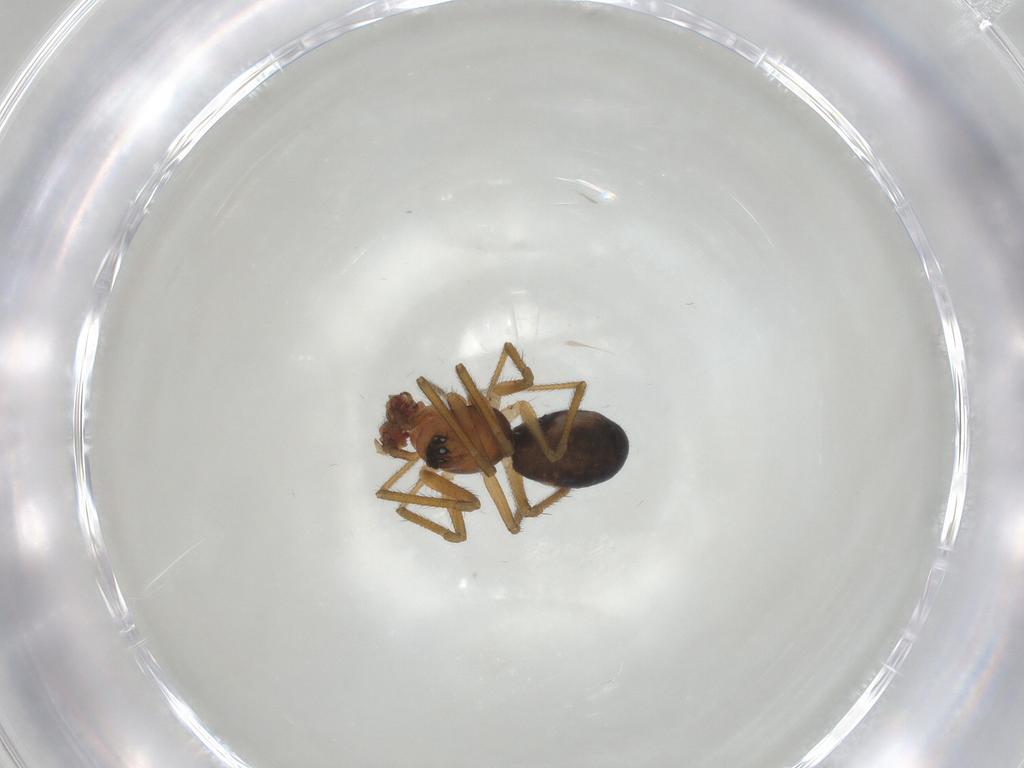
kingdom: Animalia
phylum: Arthropoda
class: Arachnida
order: Araneae
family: Linyphiidae
